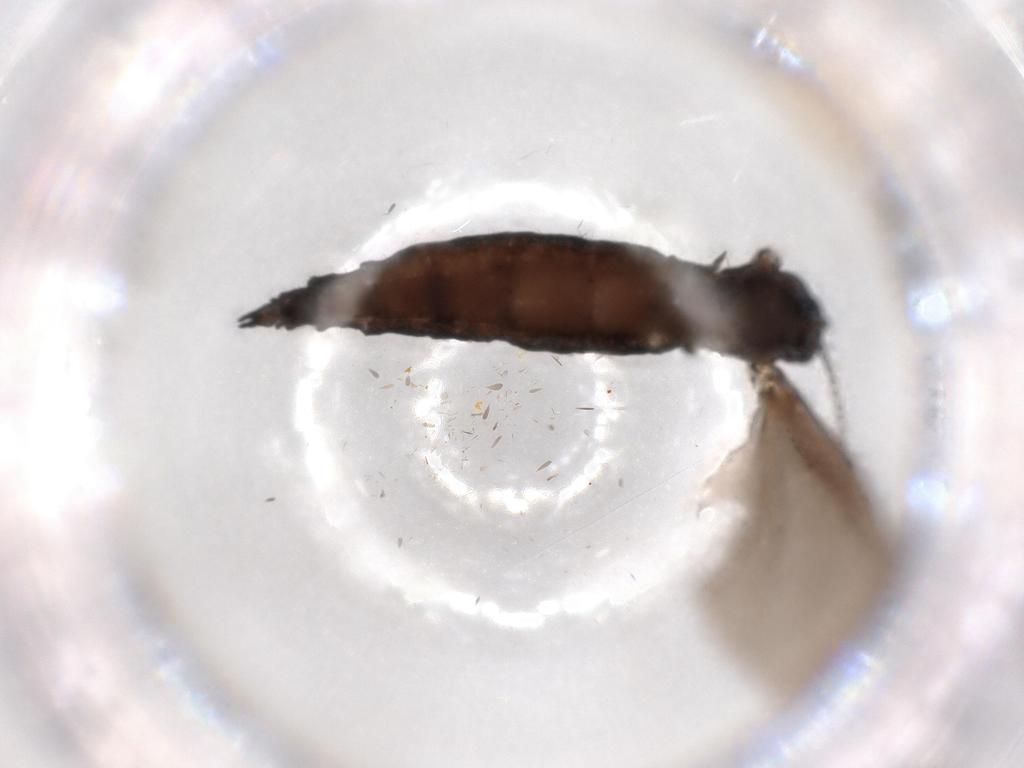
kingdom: Animalia
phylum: Arthropoda
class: Insecta
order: Diptera
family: Sciaridae
